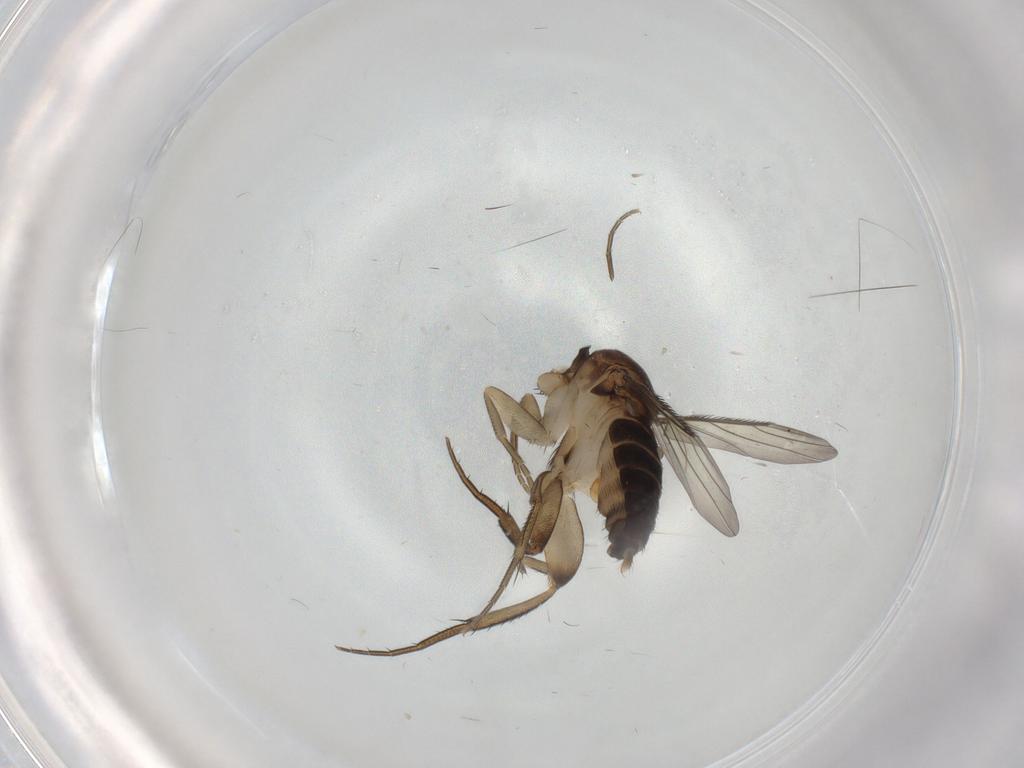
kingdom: Animalia
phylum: Arthropoda
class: Insecta
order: Diptera
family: Phoridae
